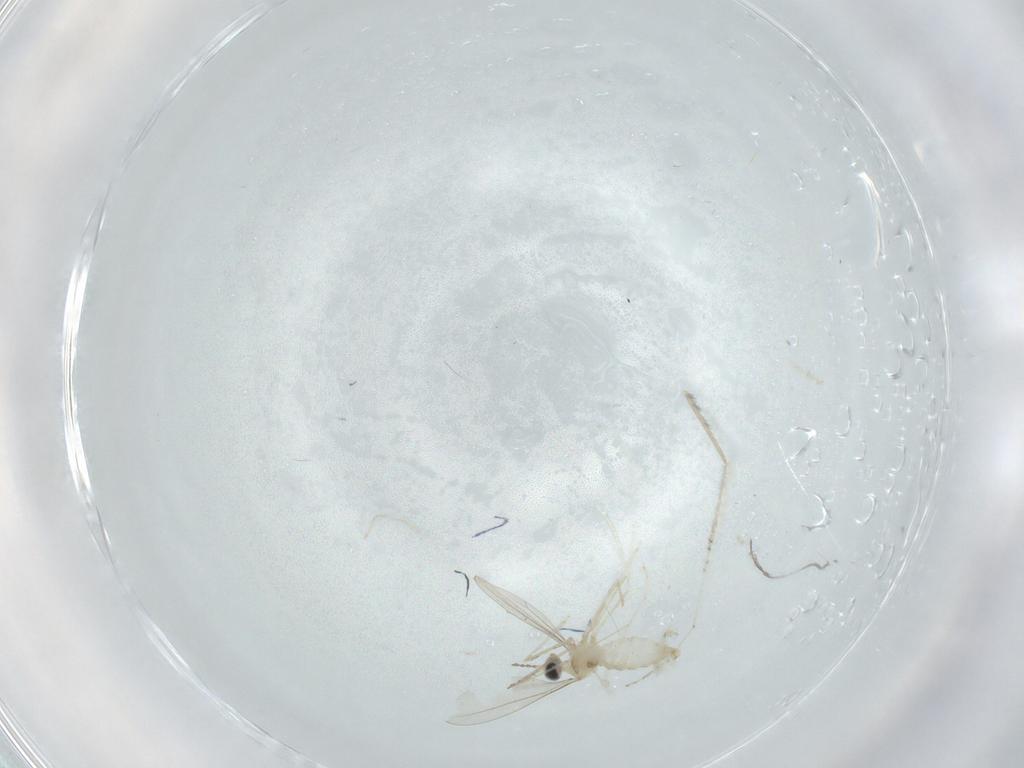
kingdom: Animalia
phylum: Arthropoda
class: Insecta
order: Diptera
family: Cecidomyiidae
